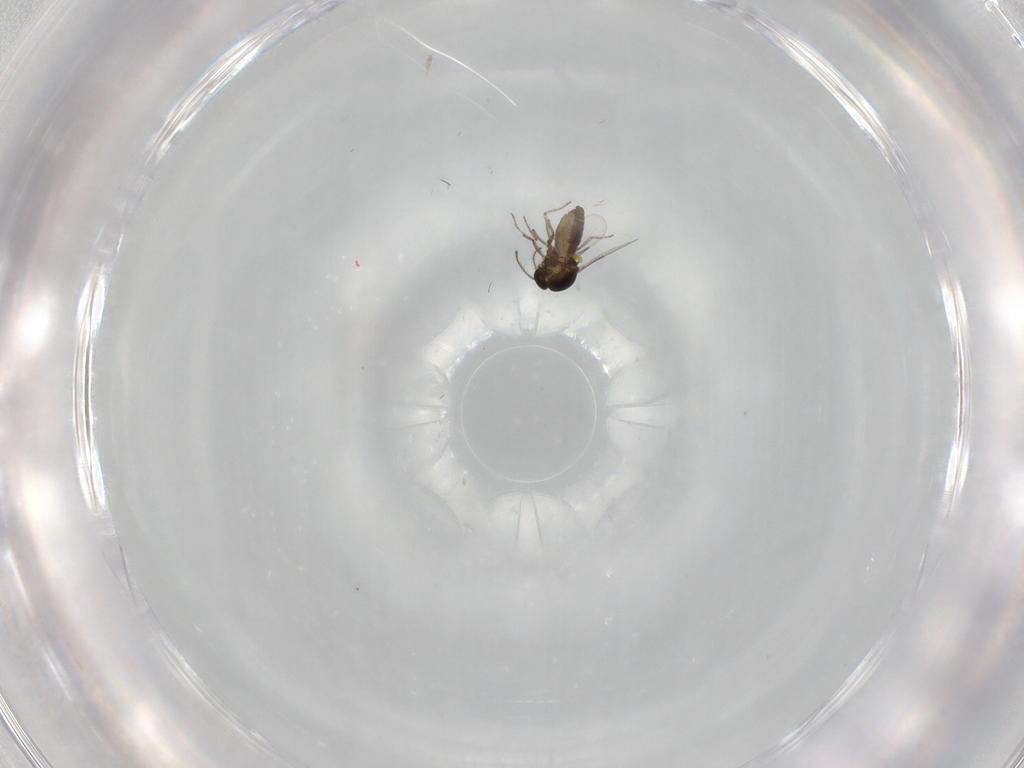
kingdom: Animalia
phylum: Arthropoda
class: Insecta
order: Diptera
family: Ceratopogonidae
